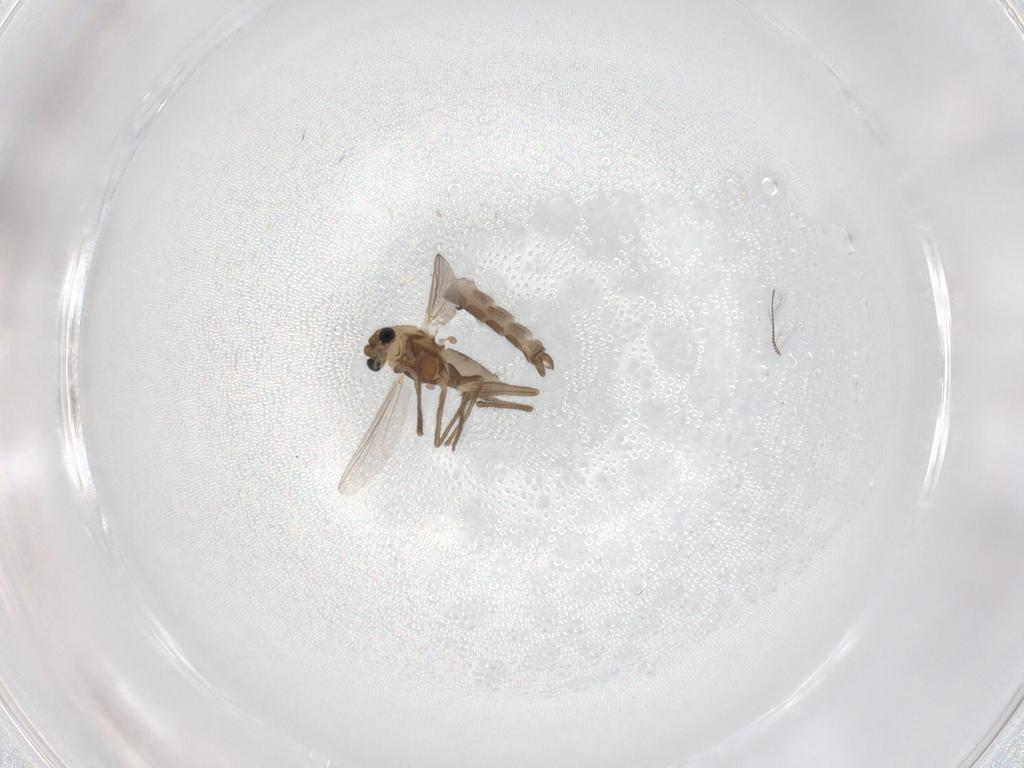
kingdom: Animalia
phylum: Arthropoda
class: Insecta
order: Diptera
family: Chironomidae
